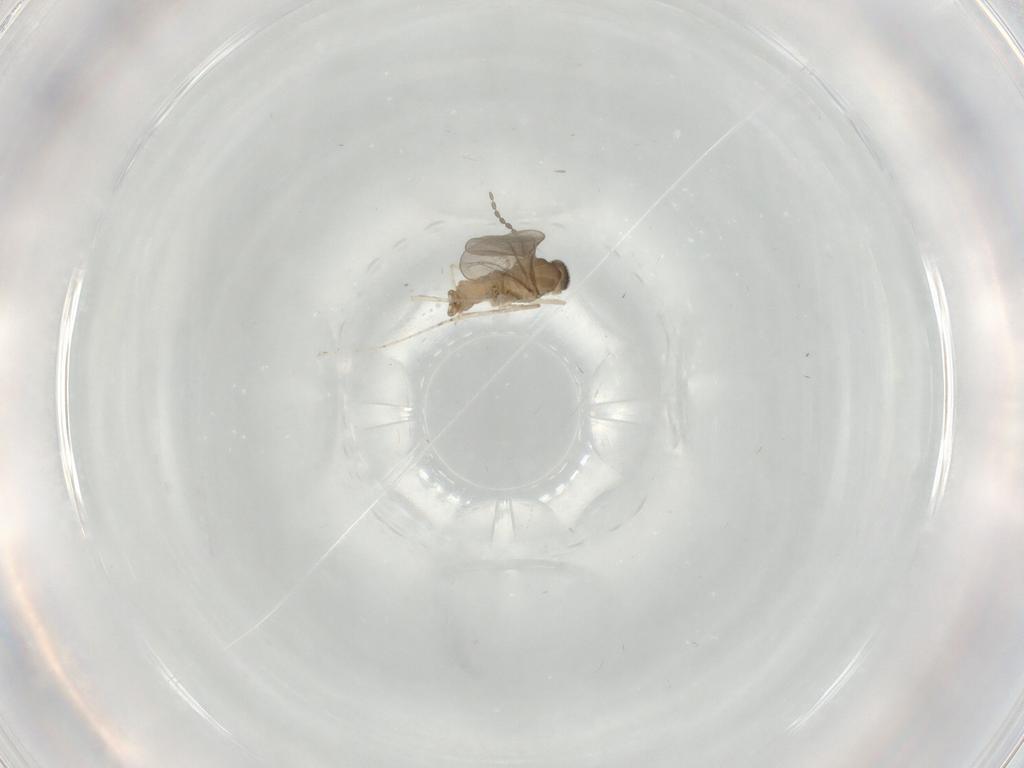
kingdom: Animalia
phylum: Arthropoda
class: Insecta
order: Diptera
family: Cecidomyiidae
